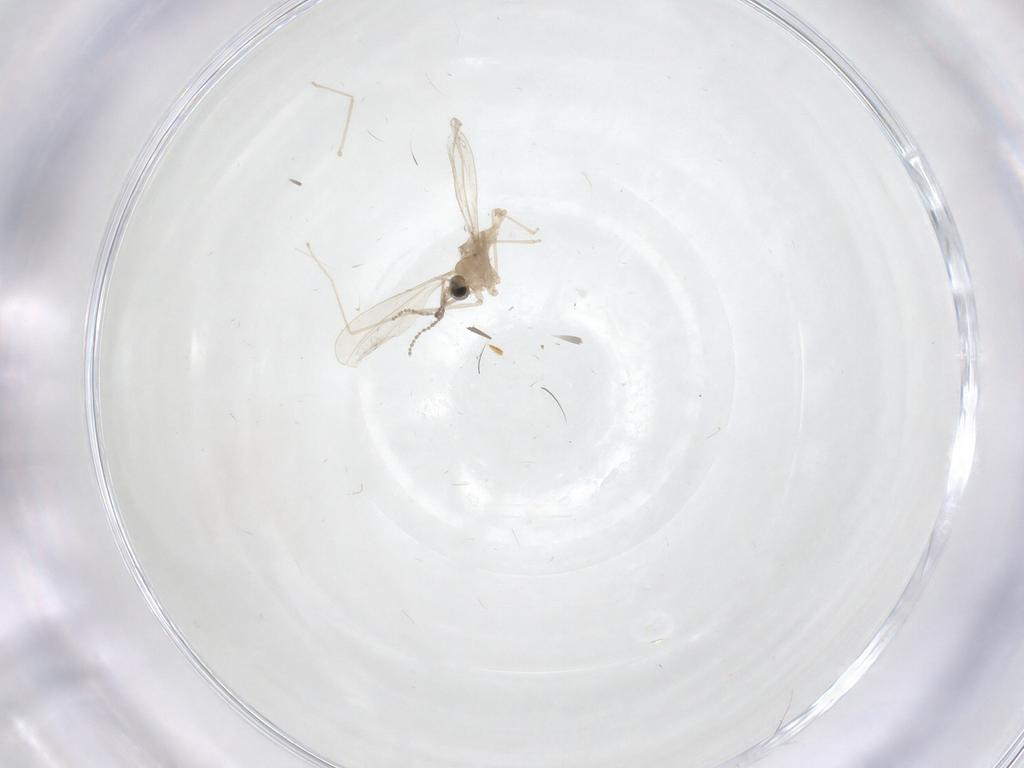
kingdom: Animalia
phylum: Arthropoda
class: Insecta
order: Diptera
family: Cecidomyiidae
